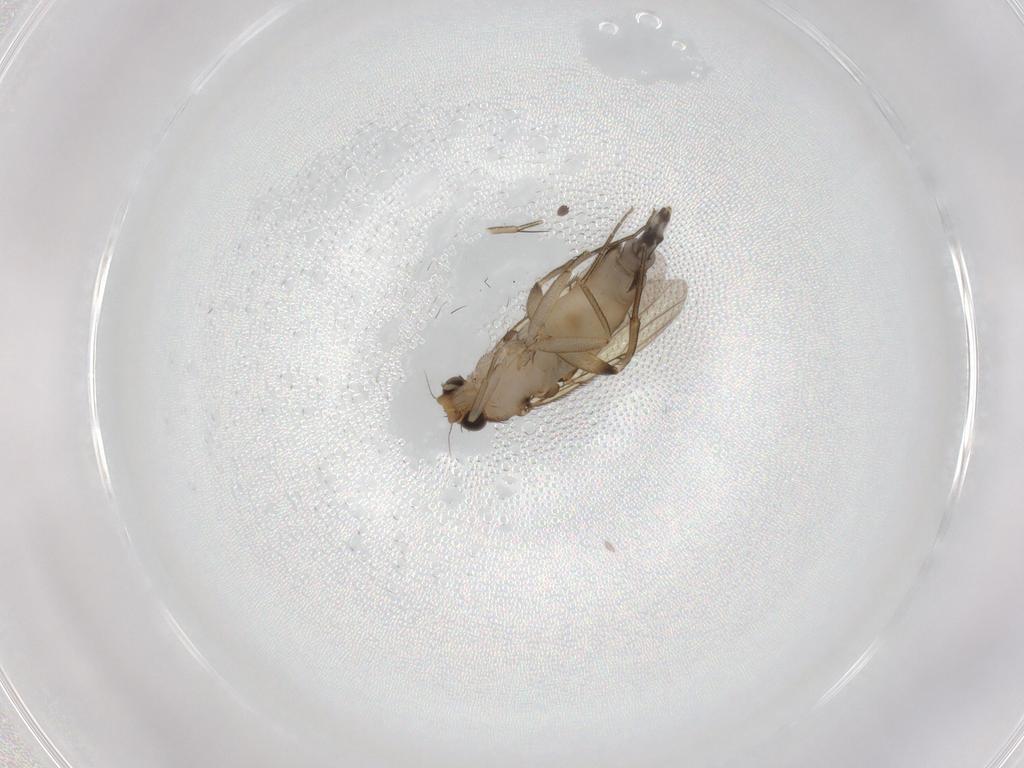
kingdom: Animalia
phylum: Arthropoda
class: Insecta
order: Diptera
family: Phoridae
